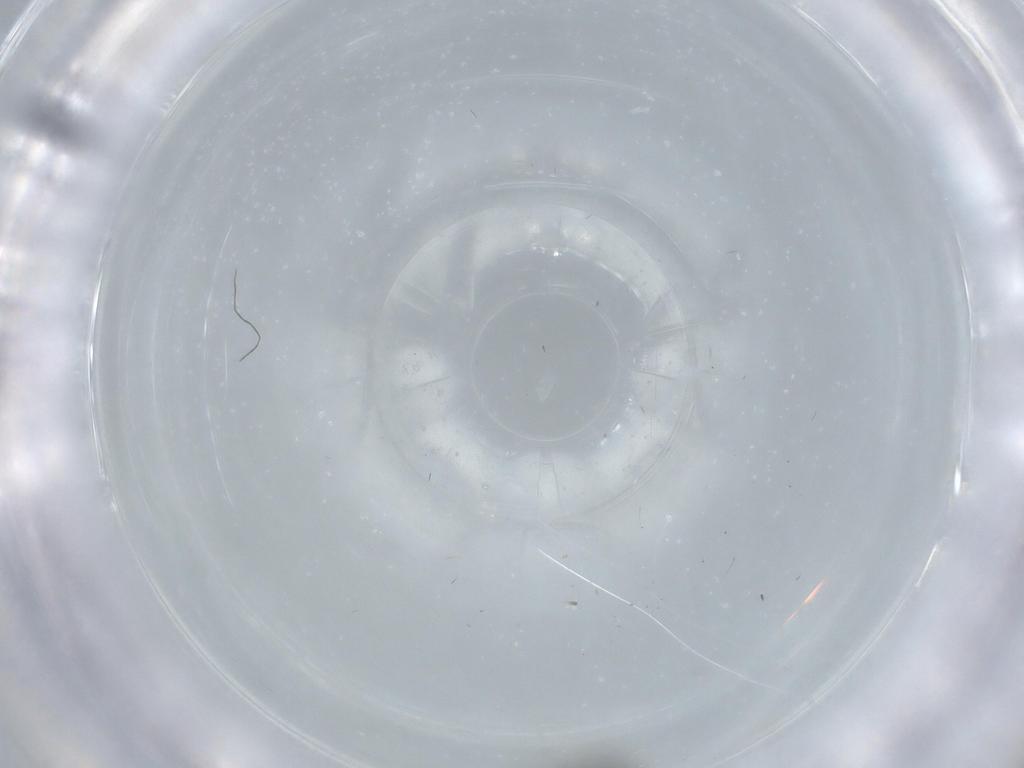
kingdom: Animalia
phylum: Arthropoda
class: Insecta
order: Diptera
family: Phoridae
